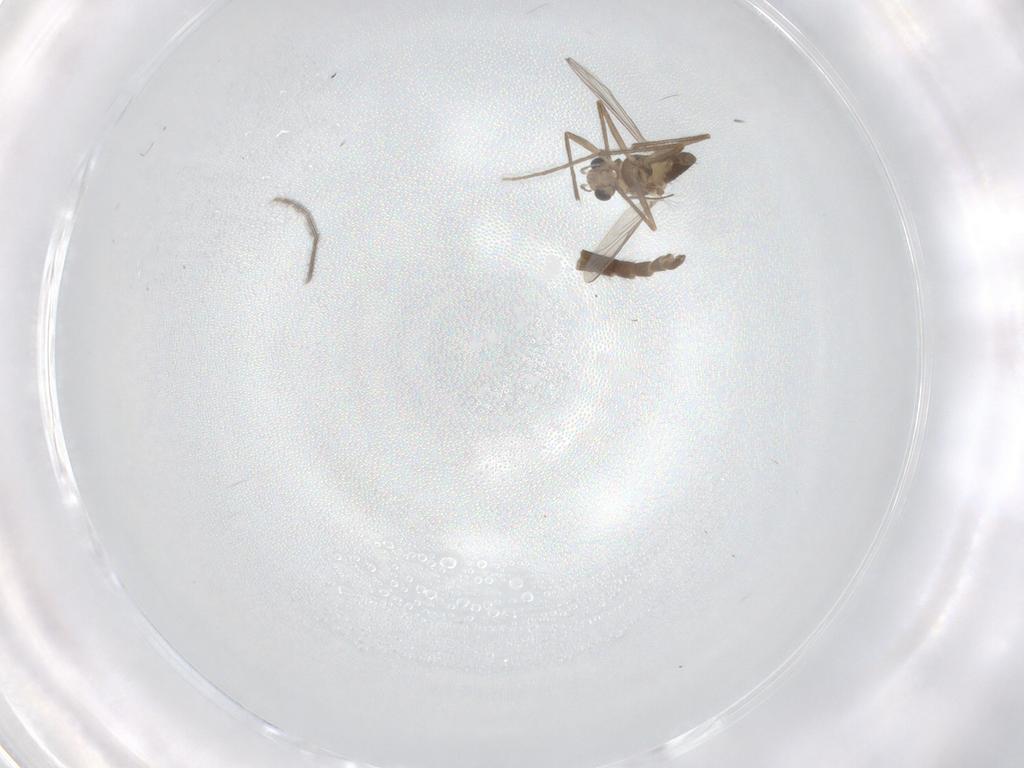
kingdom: Animalia
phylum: Arthropoda
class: Insecta
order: Diptera
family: Chironomidae
